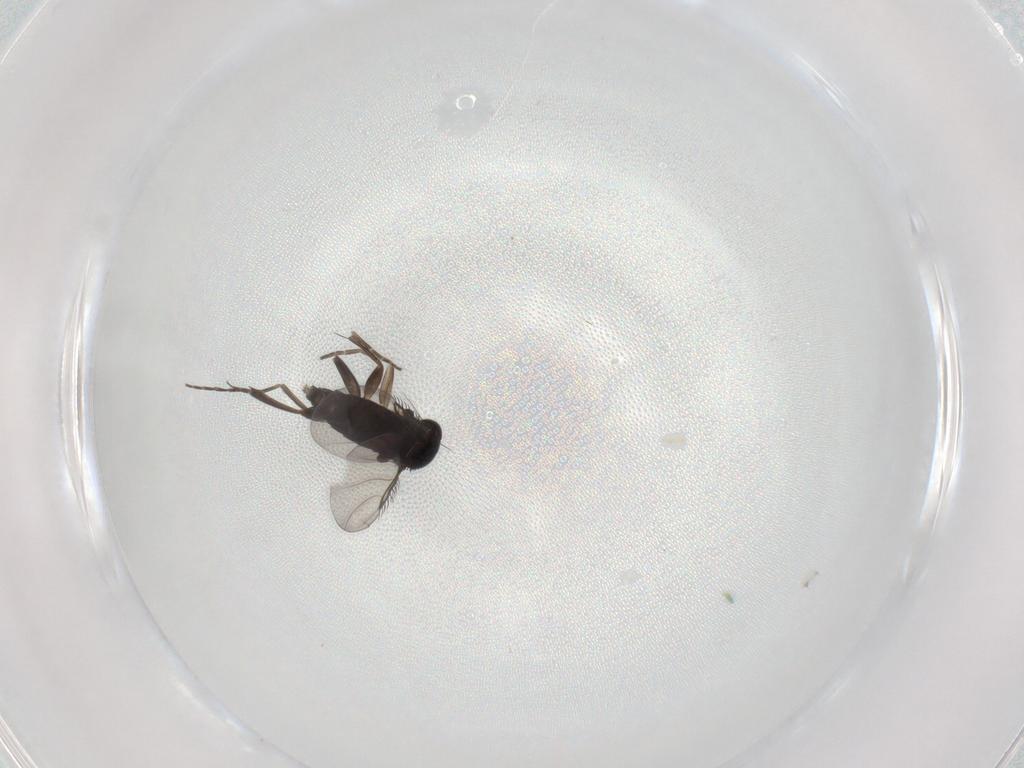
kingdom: Animalia
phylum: Arthropoda
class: Insecta
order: Diptera
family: Phoridae
